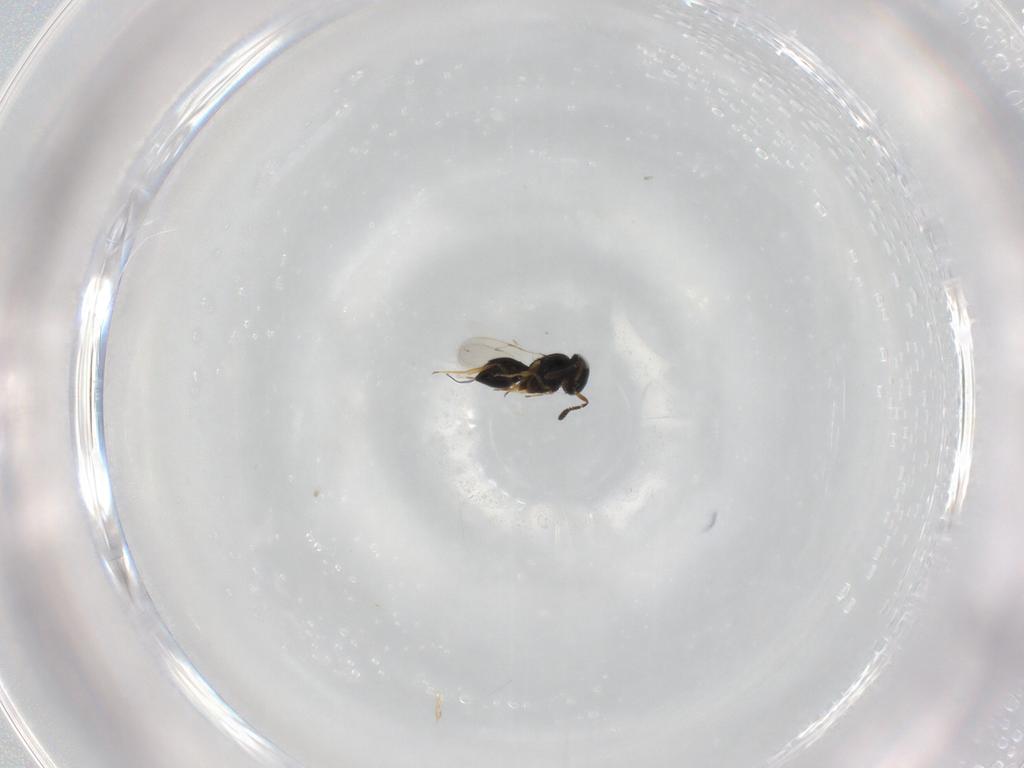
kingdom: Animalia
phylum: Arthropoda
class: Insecta
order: Hymenoptera
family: Scelionidae
